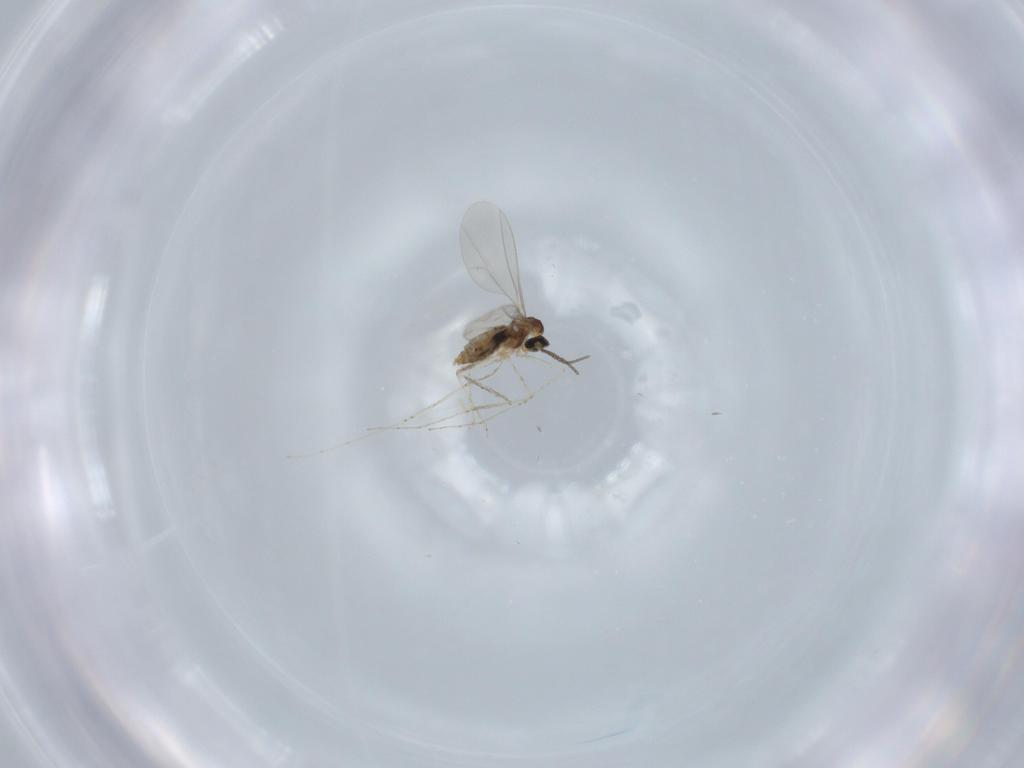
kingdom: Animalia
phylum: Arthropoda
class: Insecta
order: Diptera
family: Cecidomyiidae
